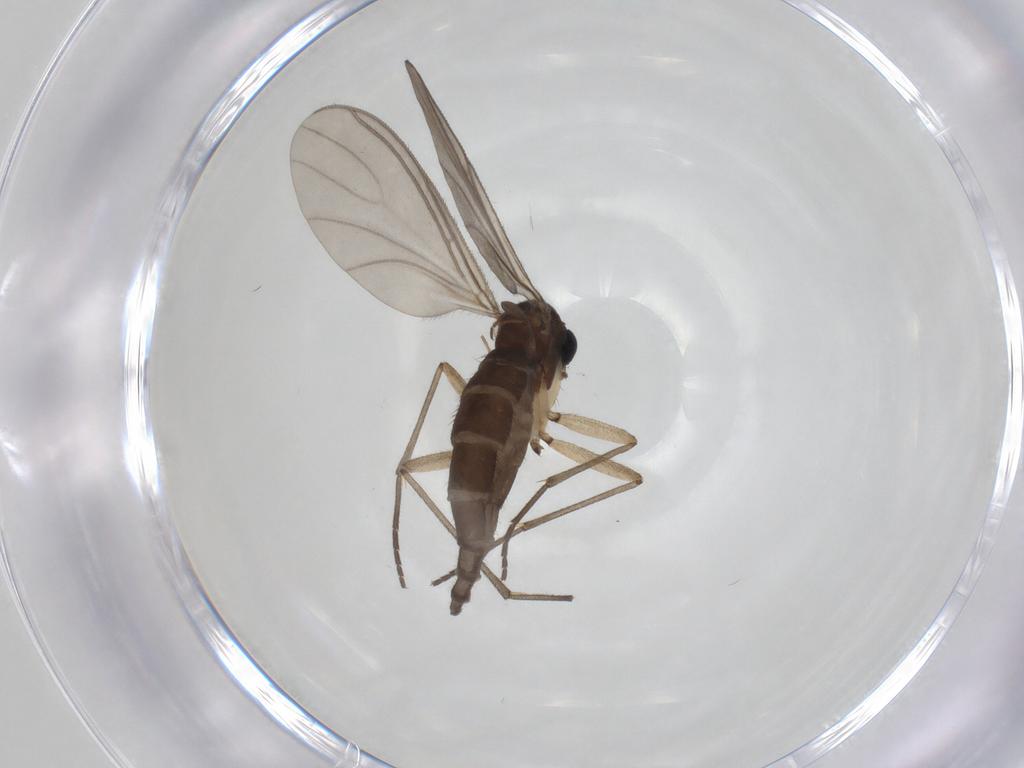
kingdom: Animalia
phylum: Arthropoda
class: Insecta
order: Diptera
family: Sciaridae
